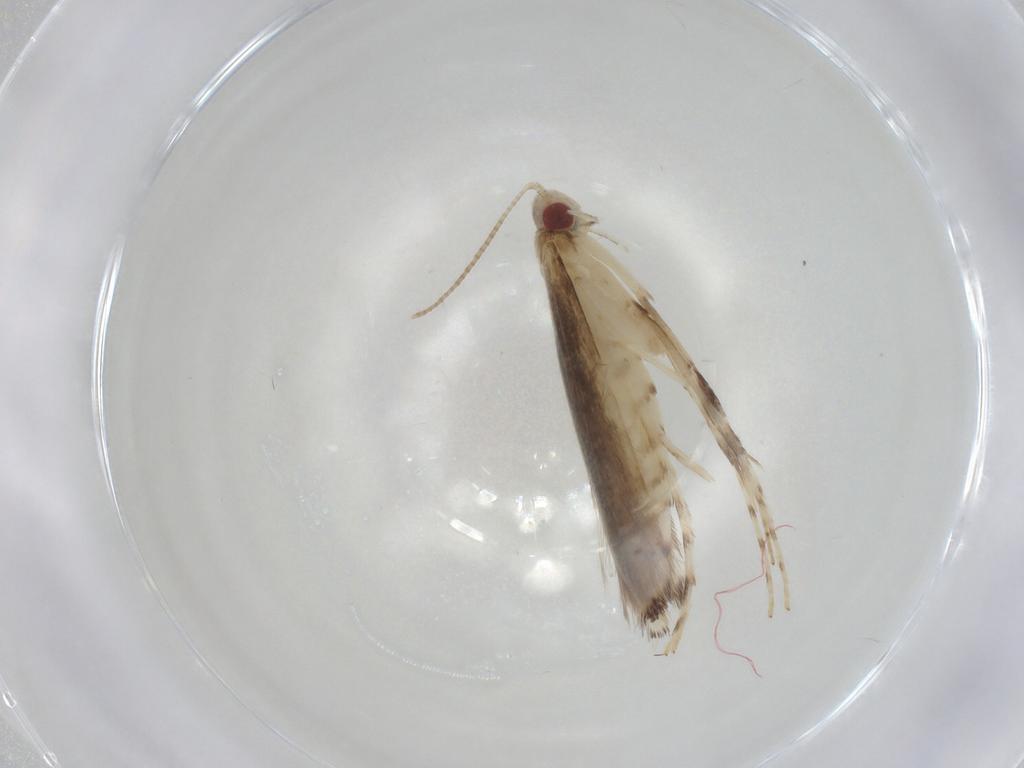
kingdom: Animalia
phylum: Arthropoda
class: Insecta
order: Lepidoptera
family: Crambidae
